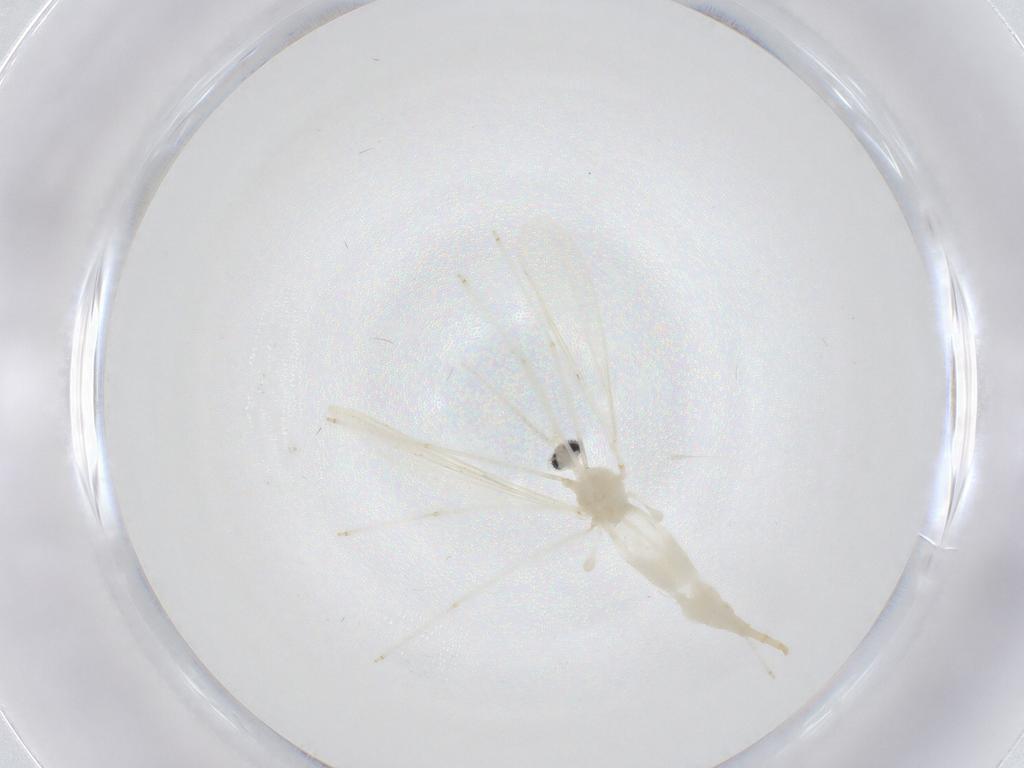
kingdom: Animalia
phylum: Arthropoda
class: Insecta
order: Diptera
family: Cecidomyiidae
